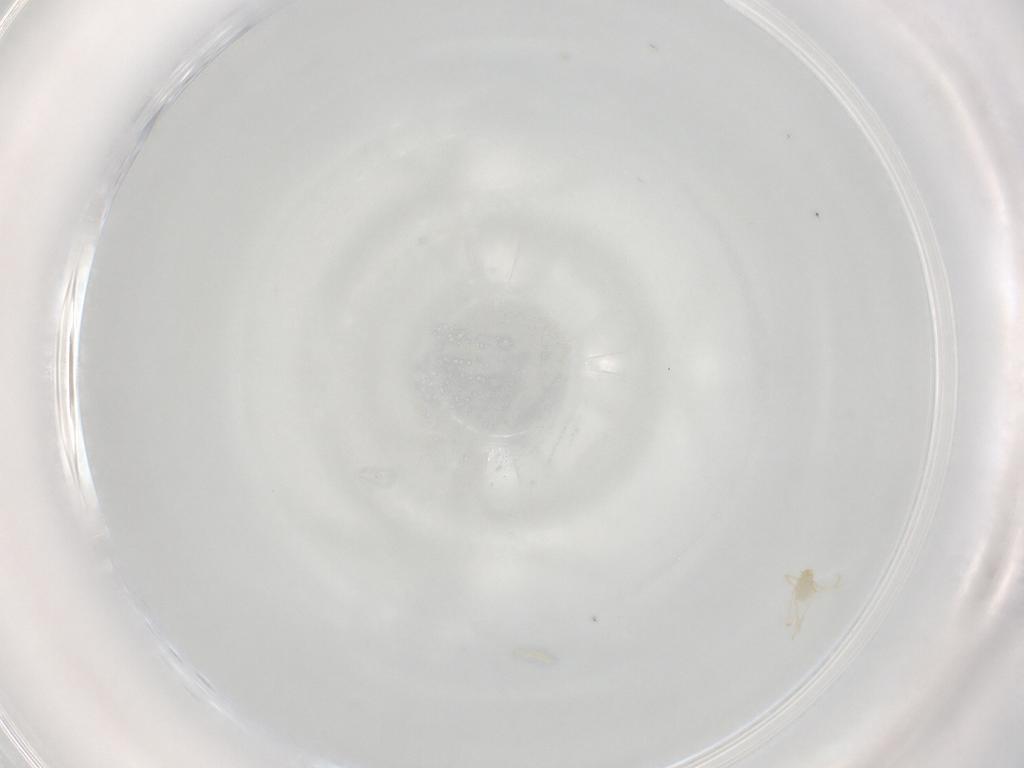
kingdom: Animalia
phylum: Arthropoda
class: Arachnida
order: Trombidiformes
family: Erythraeidae
